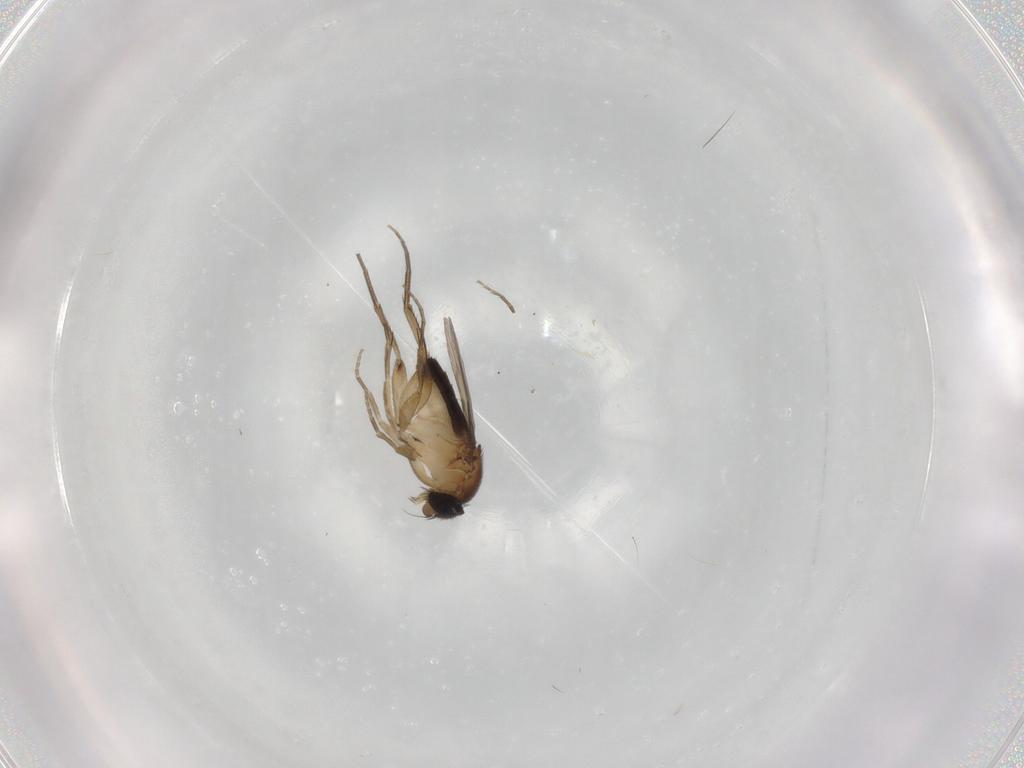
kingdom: Animalia
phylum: Arthropoda
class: Insecta
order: Diptera
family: Phoridae
